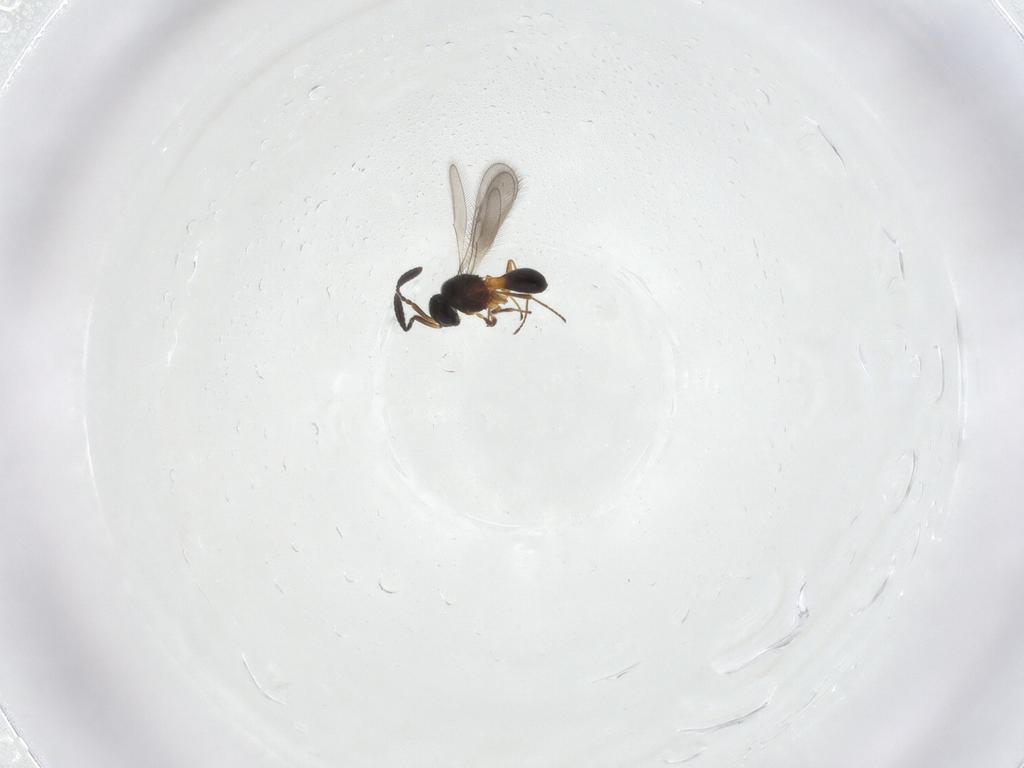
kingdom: Animalia
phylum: Arthropoda
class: Insecta
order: Hymenoptera
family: Scelionidae
